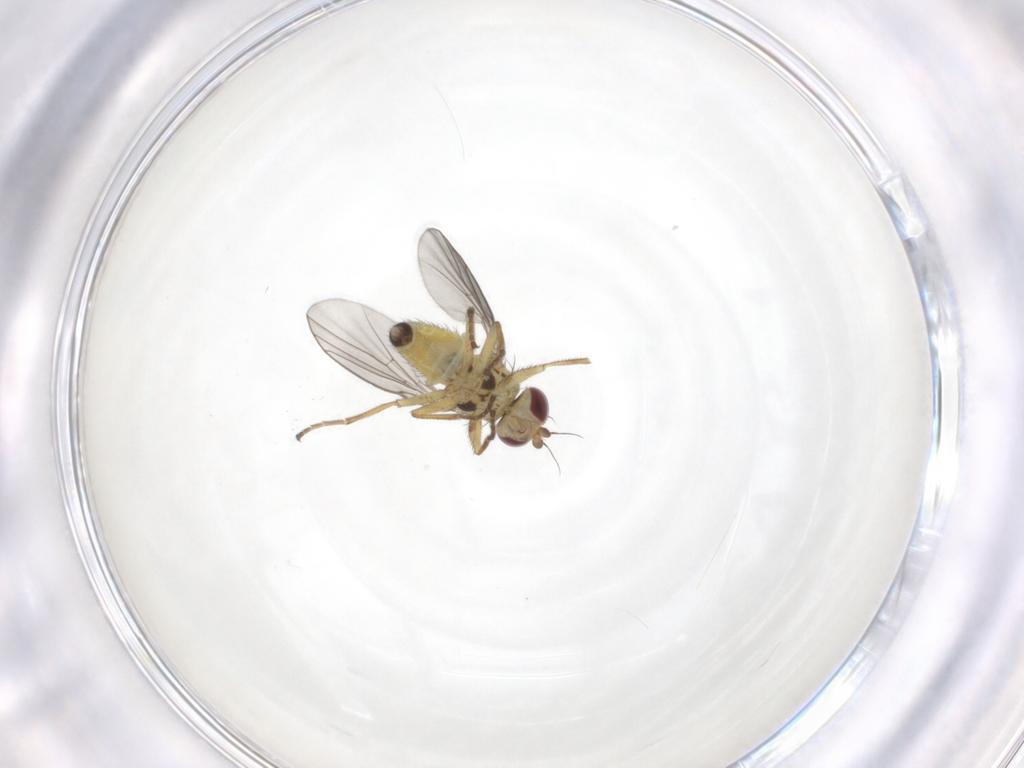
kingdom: Animalia
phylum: Arthropoda
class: Insecta
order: Diptera
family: Agromyzidae
